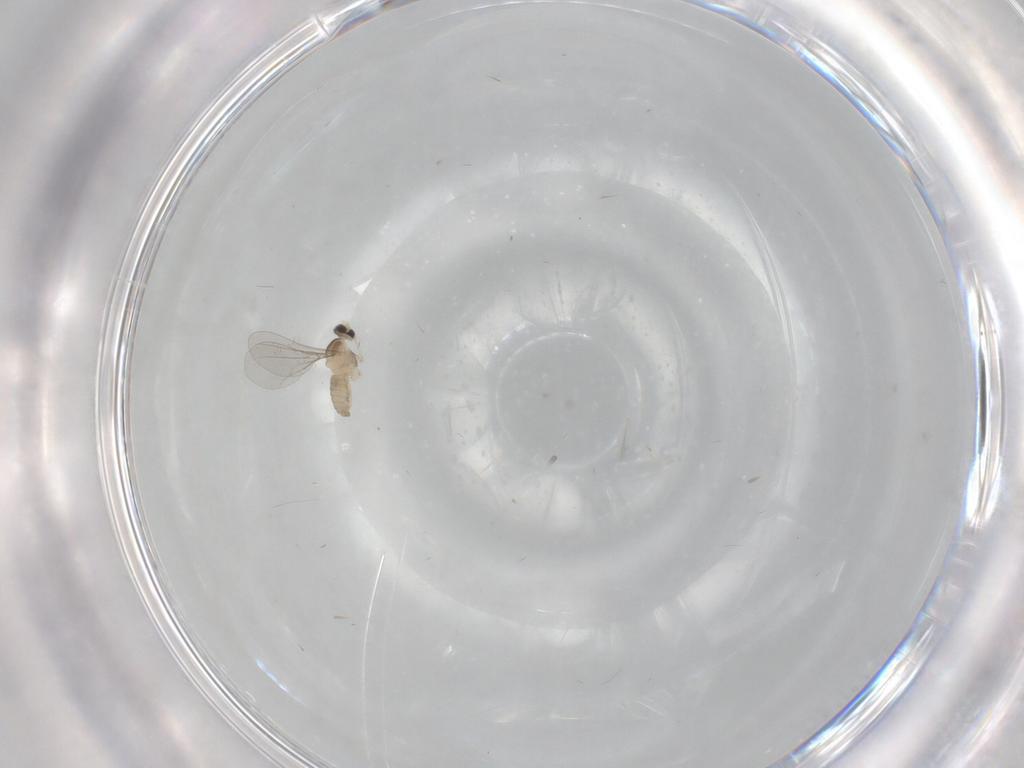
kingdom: Animalia
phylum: Arthropoda
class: Insecta
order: Diptera
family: Cecidomyiidae
